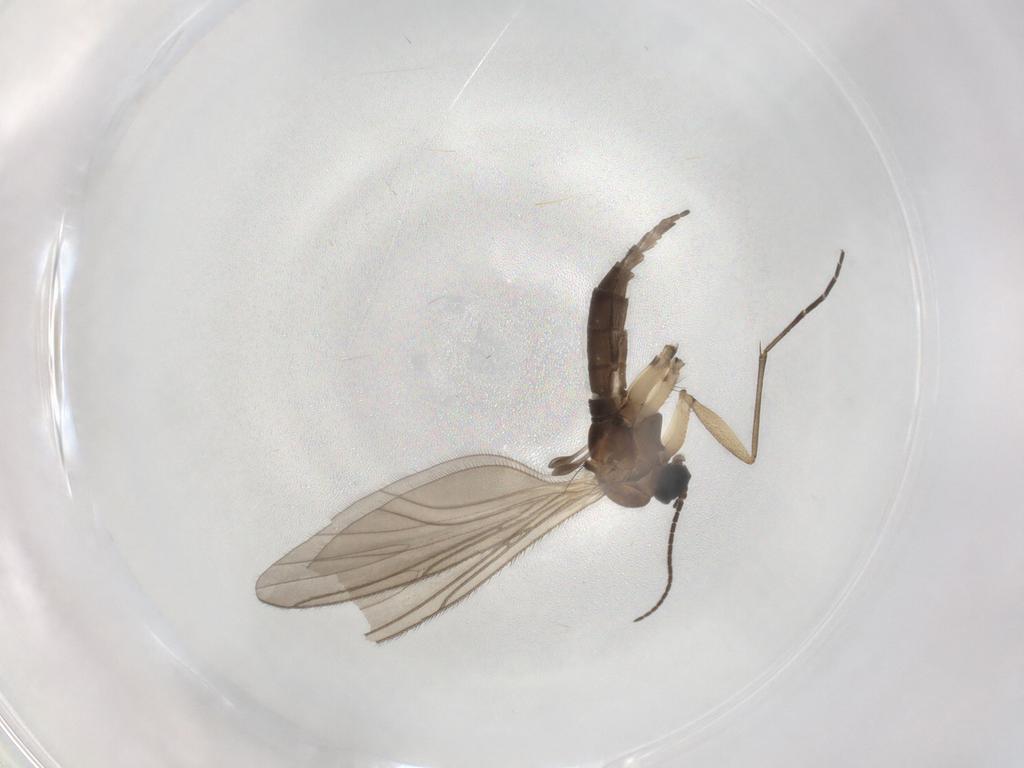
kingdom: Animalia
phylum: Arthropoda
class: Insecta
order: Diptera
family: Sciaridae
